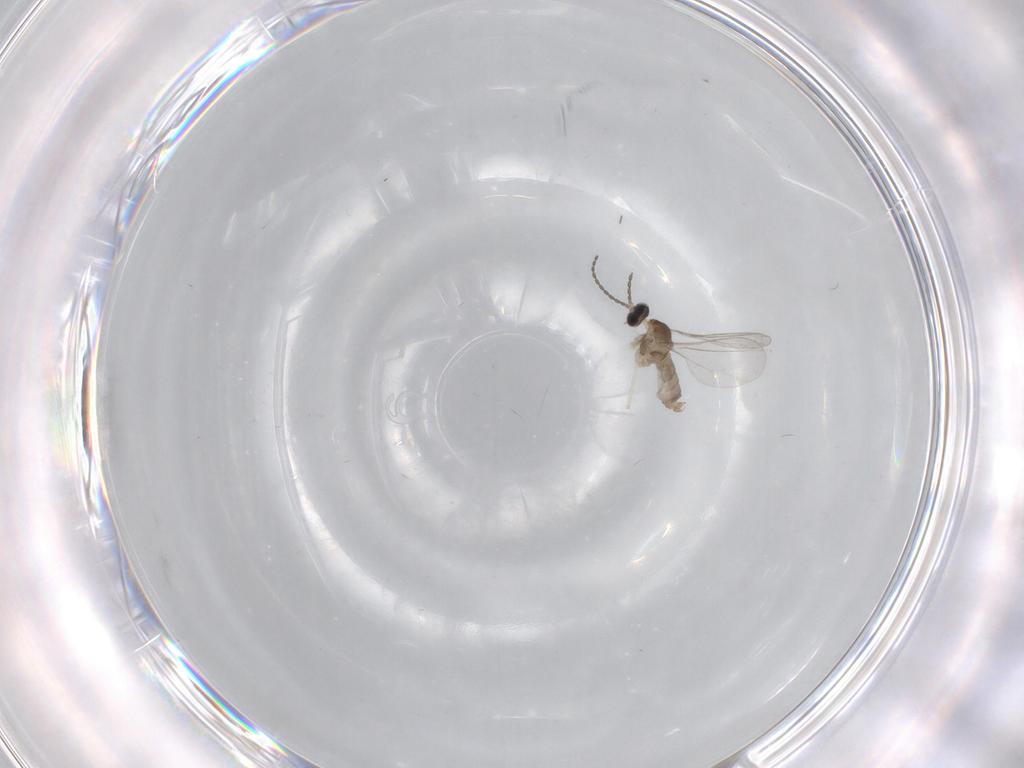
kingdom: Animalia
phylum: Arthropoda
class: Insecta
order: Diptera
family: Cecidomyiidae
